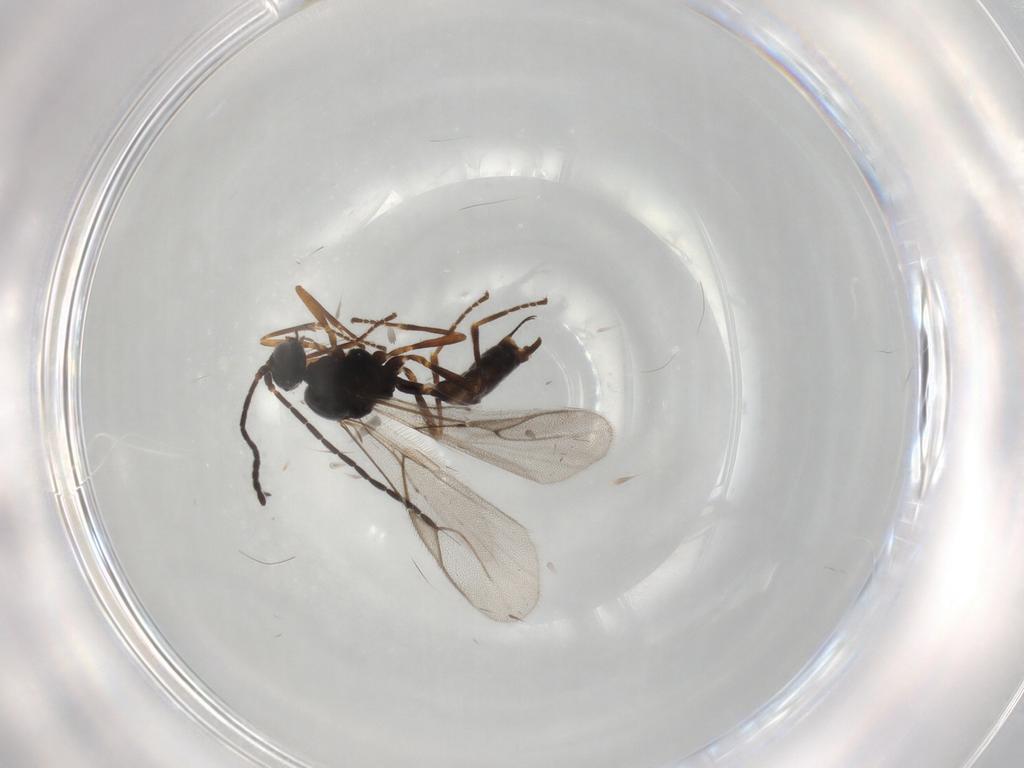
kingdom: Animalia
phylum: Arthropoda
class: Insecta
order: Hymenoptera
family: Braconidae
